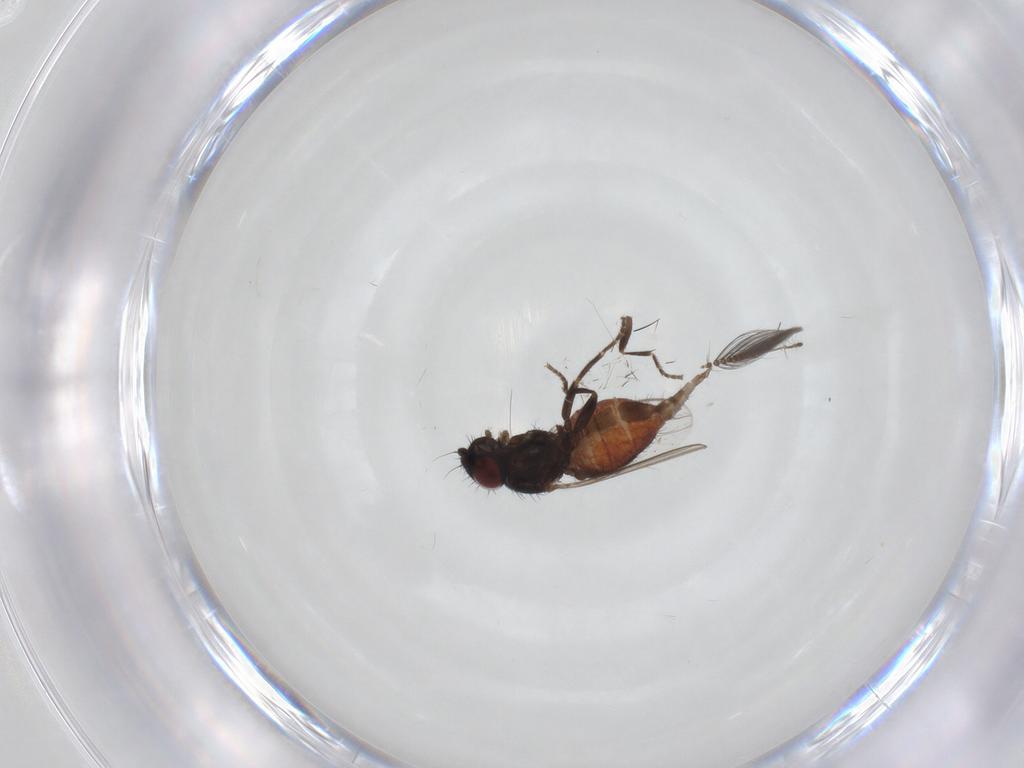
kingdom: Animalia
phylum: Arthropoda
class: Insecta
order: Diptera
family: Milichiidae
